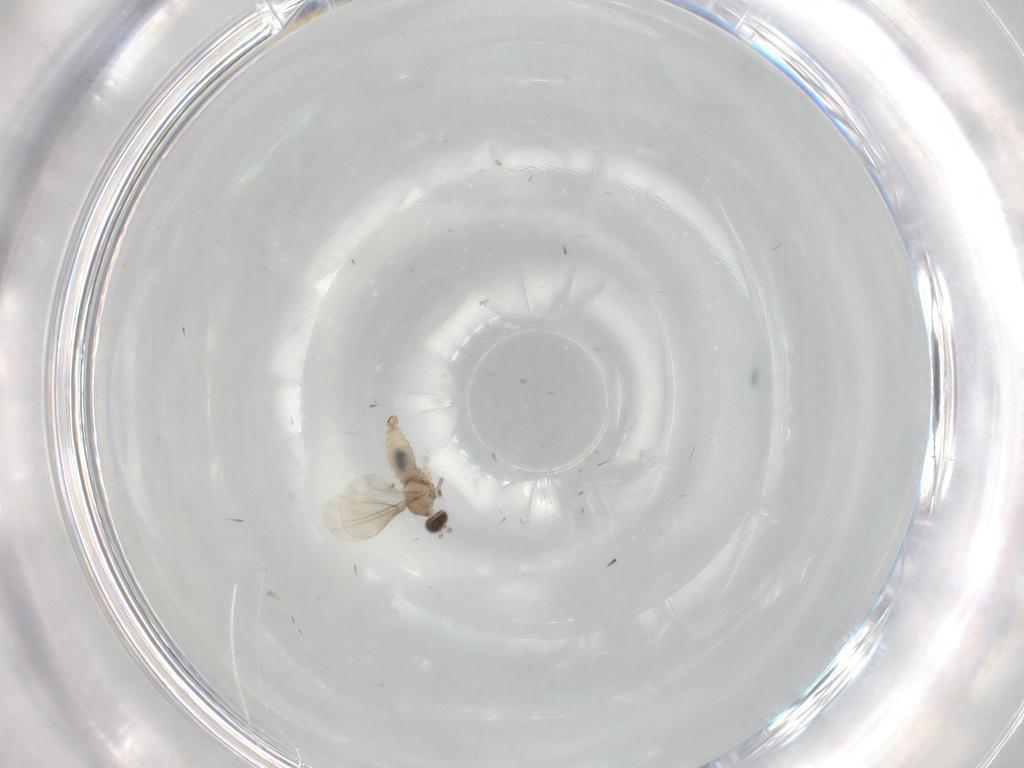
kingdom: Animalia
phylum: Arthropoda
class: Insecta
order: Diptera
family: Cecidomyiidae
